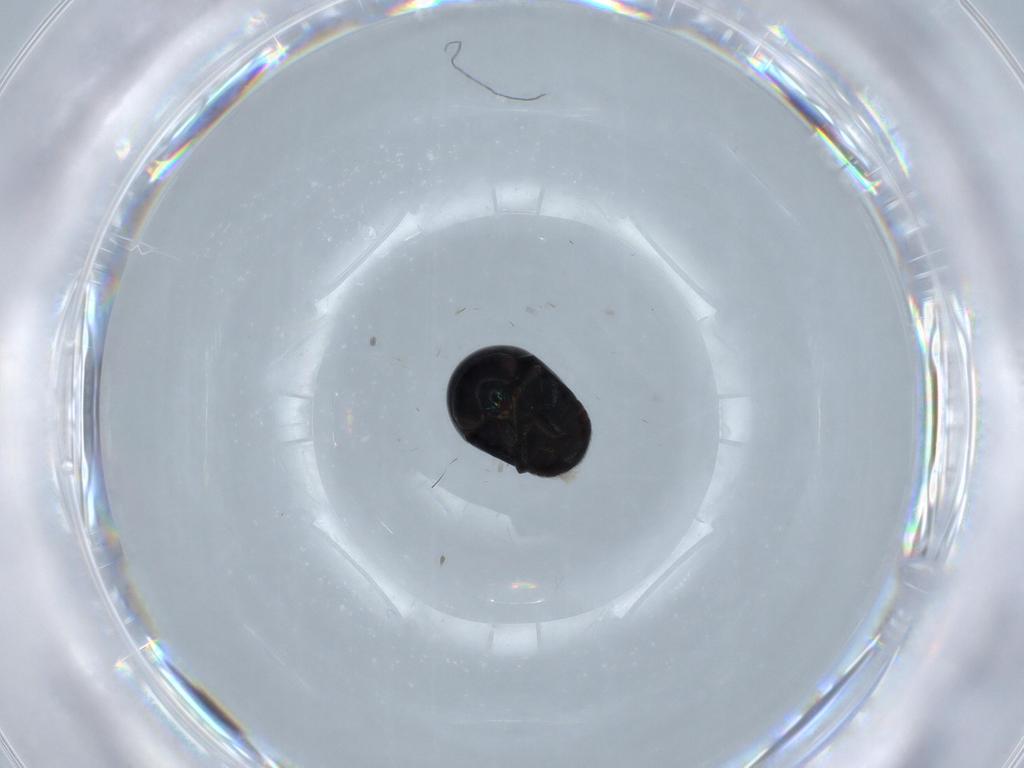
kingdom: Animalia
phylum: Arthropoda
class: Insecta
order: Coleoptera
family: Cybocephalidae
